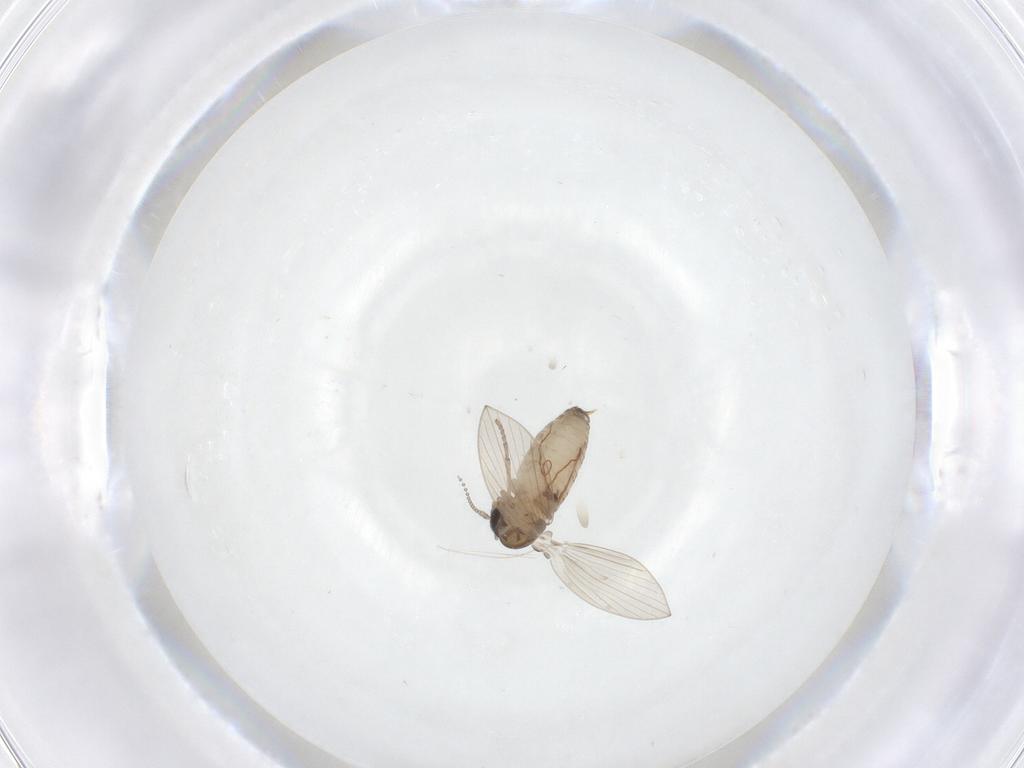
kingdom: Animalia
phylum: Arthropoda
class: Insecta
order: Diptera
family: Psychodidae
